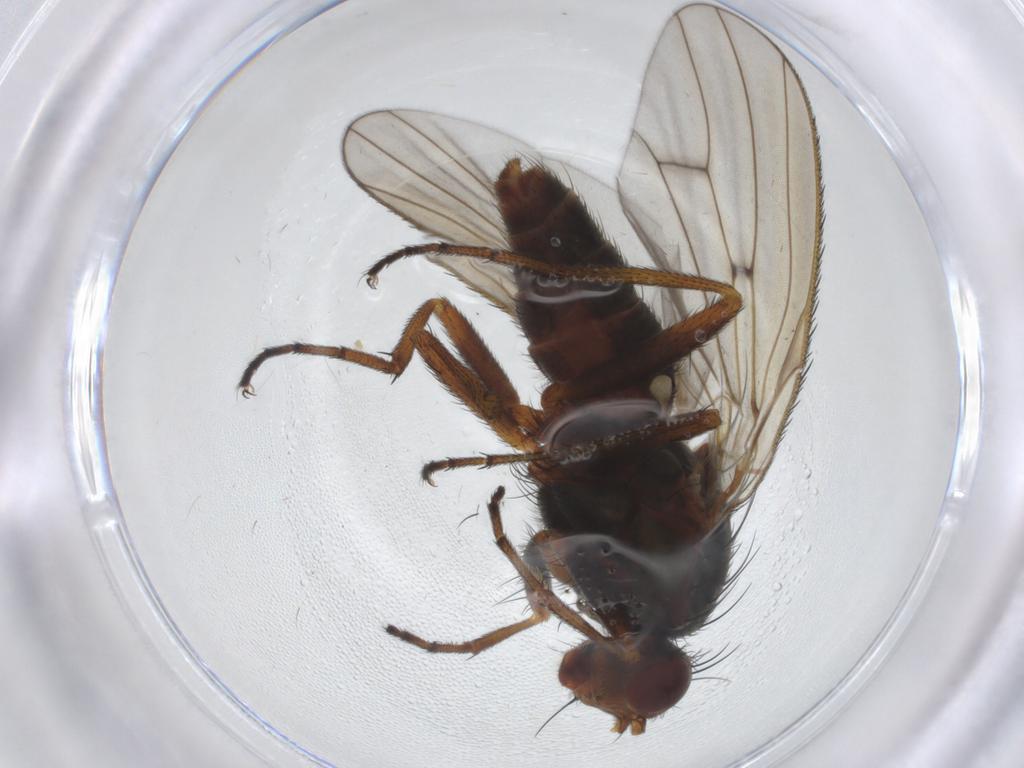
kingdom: Animalia
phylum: Arthropoda
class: Insecta
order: Diptera
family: Heleomyzidae
